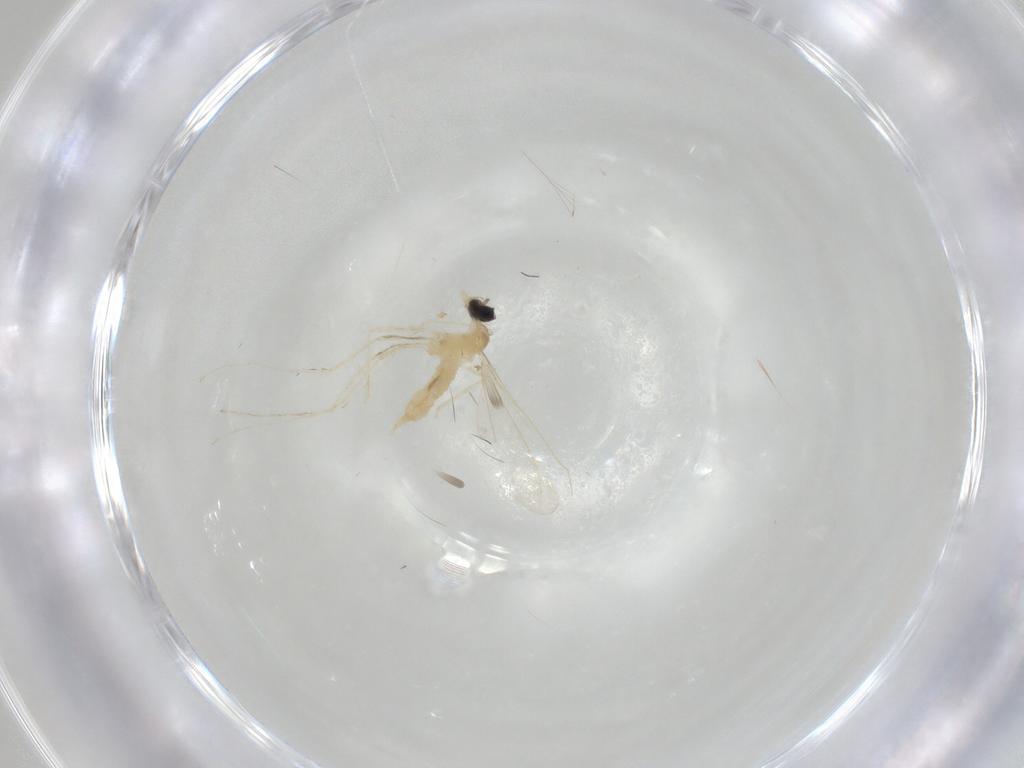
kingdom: Animalia
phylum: Arthropoda
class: Insecta
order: Diptera
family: Cecidomyiidae
